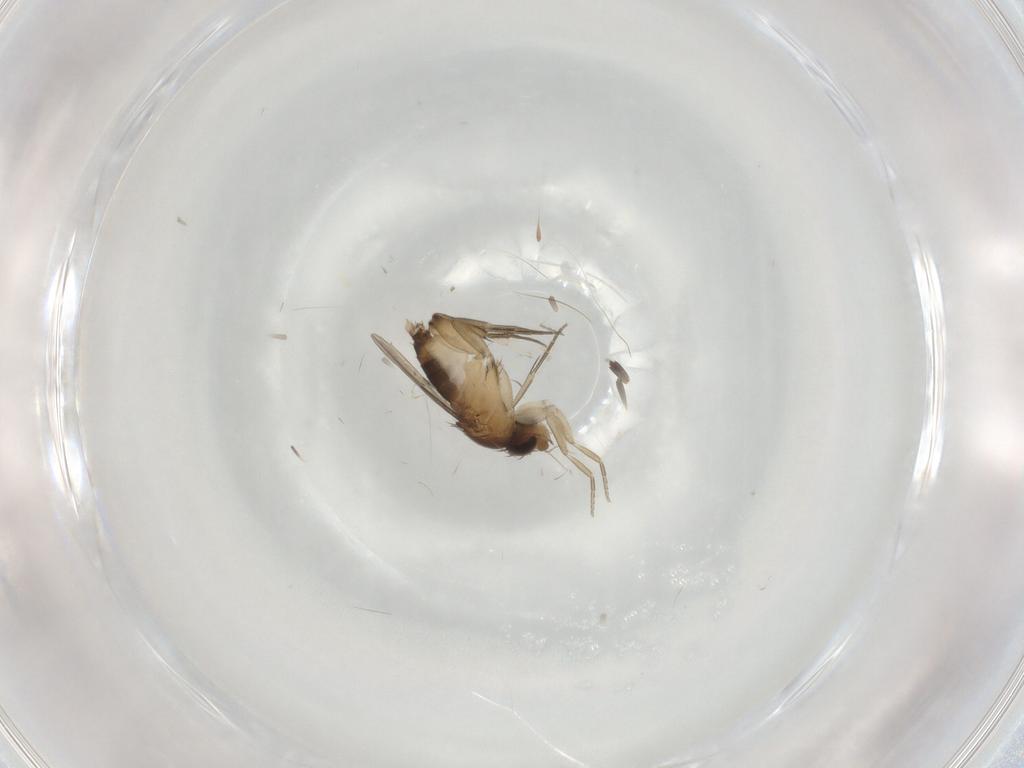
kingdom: Animalia
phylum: Arthropoda
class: Insecta
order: Diptera
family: Phoridae
